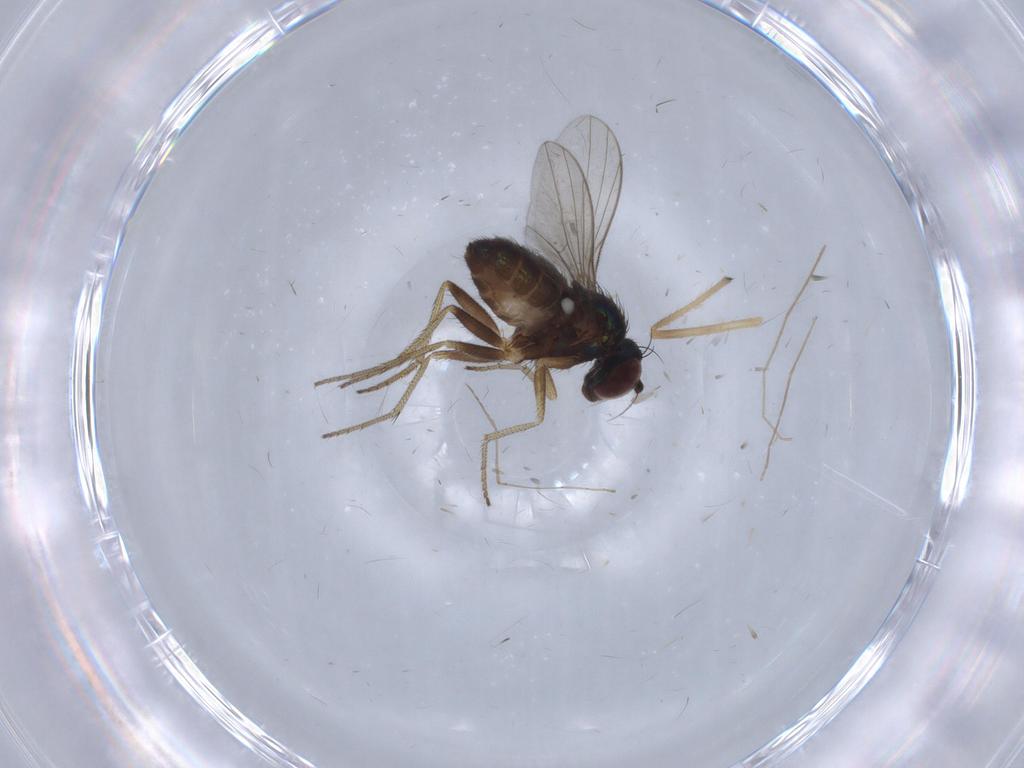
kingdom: Animalia
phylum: Arthropoda
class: Insecta
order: Diptera
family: Chironomidae
